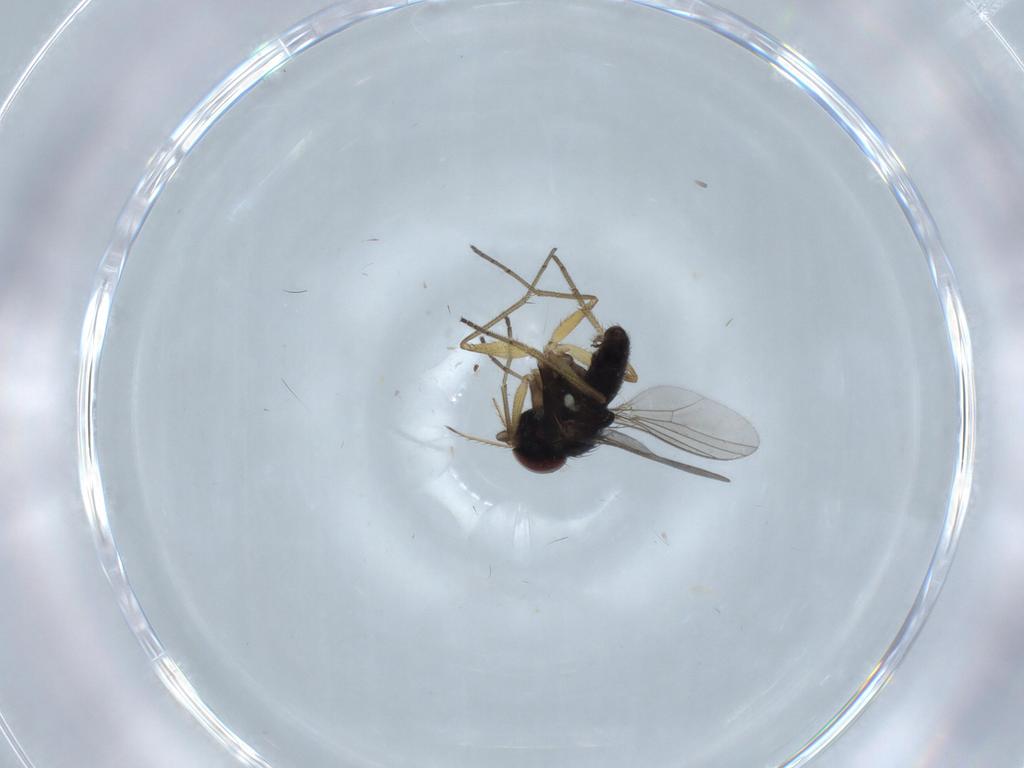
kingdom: Animalia
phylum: Arthropoda
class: Insecta
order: Diptera
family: Dolichopodidae
